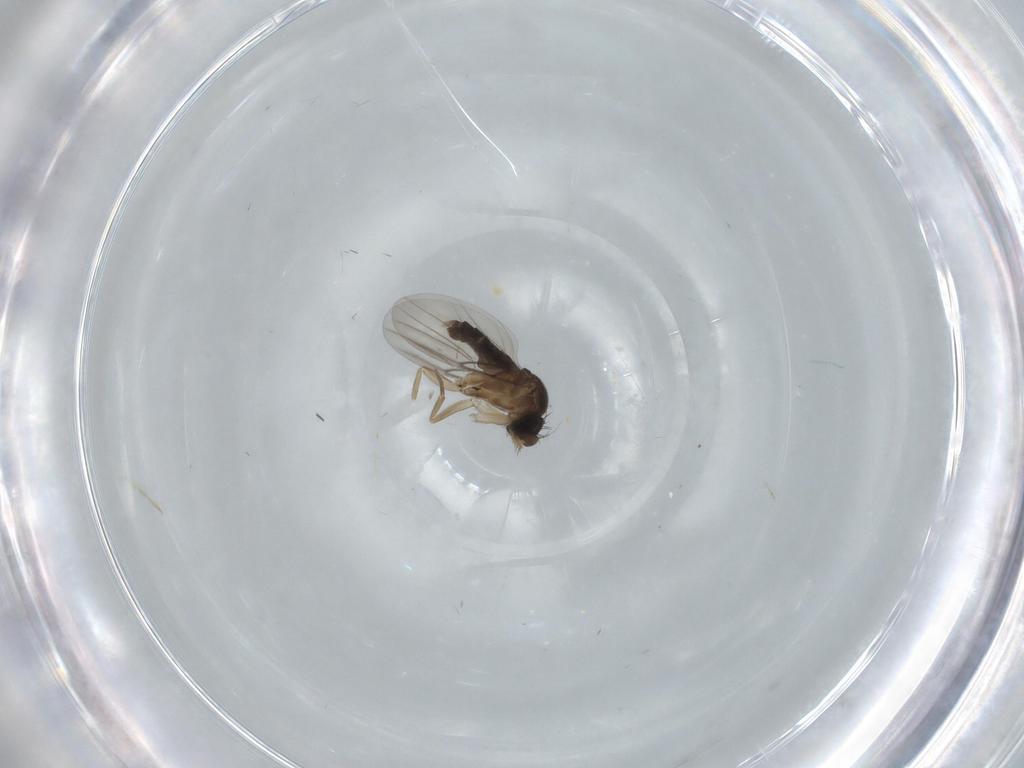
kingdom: Animalia
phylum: Arthropoda
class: Insecta
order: Diptera
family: Phoridae
